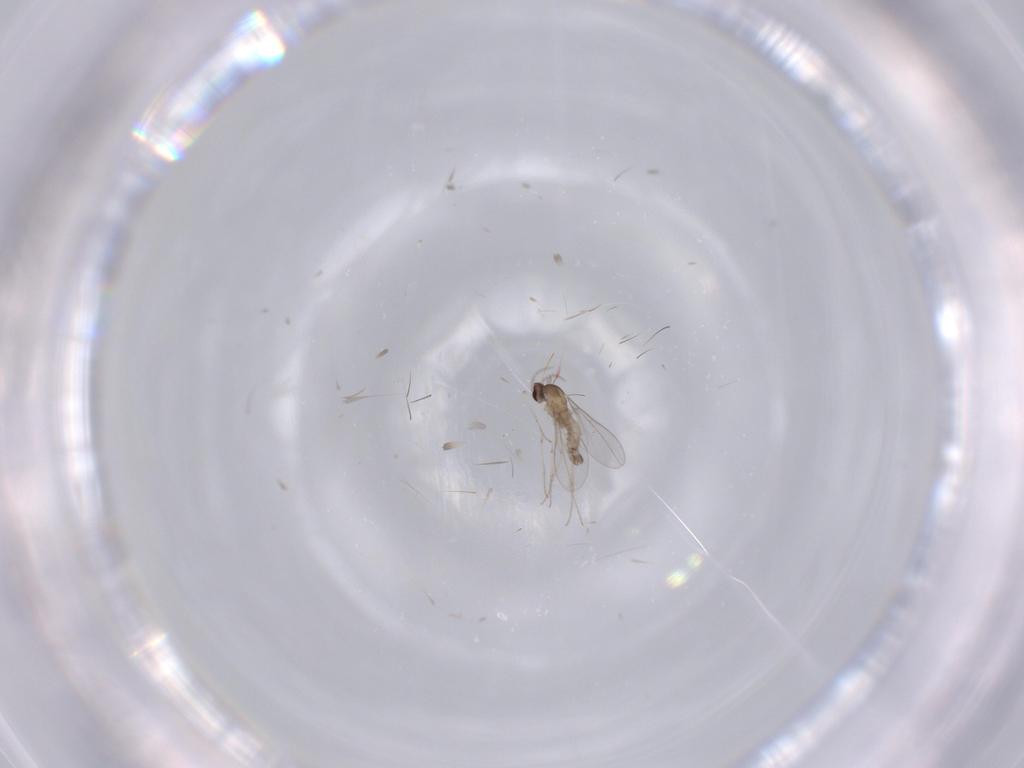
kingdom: Animalia
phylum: Arthropoda
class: Insecta
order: Diptera
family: Cecidomyiidae
